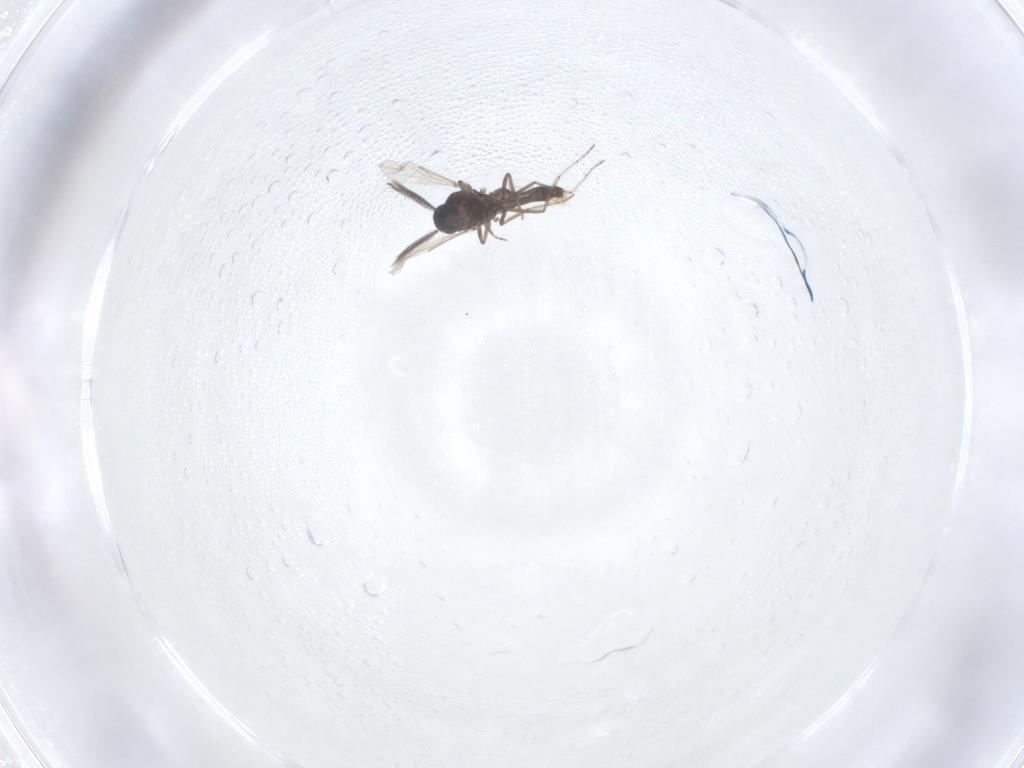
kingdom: Animalia
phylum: Arthropoda
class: Insecta
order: Diptera
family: Ceratopogonidae
